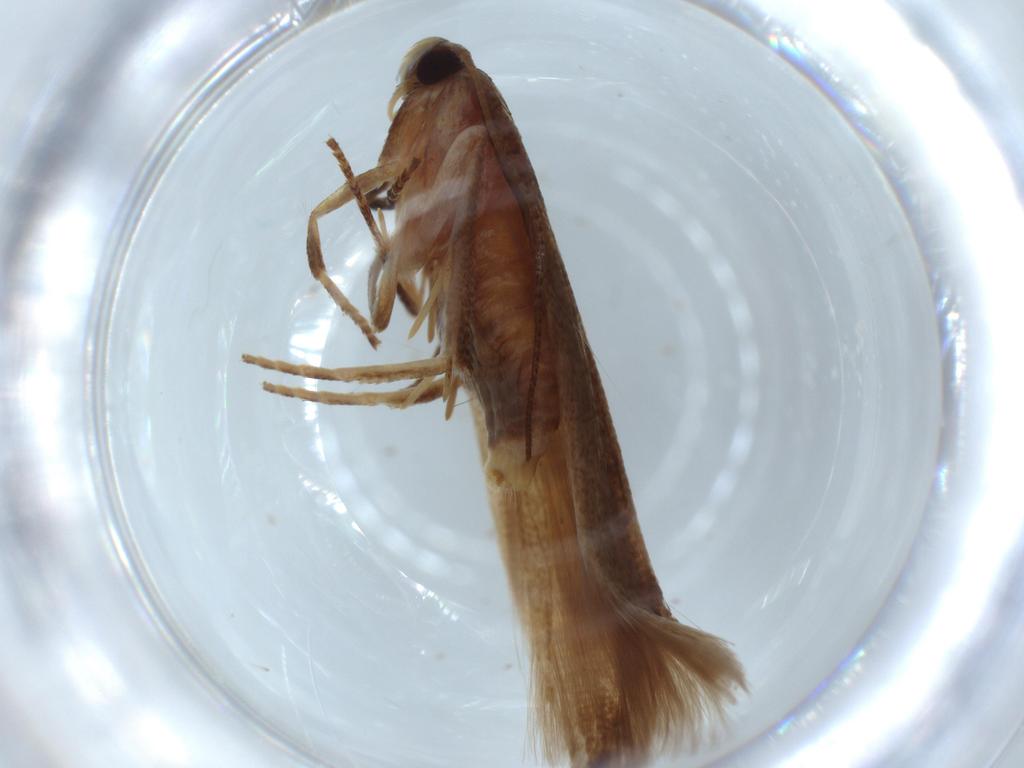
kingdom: Animalia
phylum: Arthropoda
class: Insecta
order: Lepidoptera
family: Stathmopodidae
